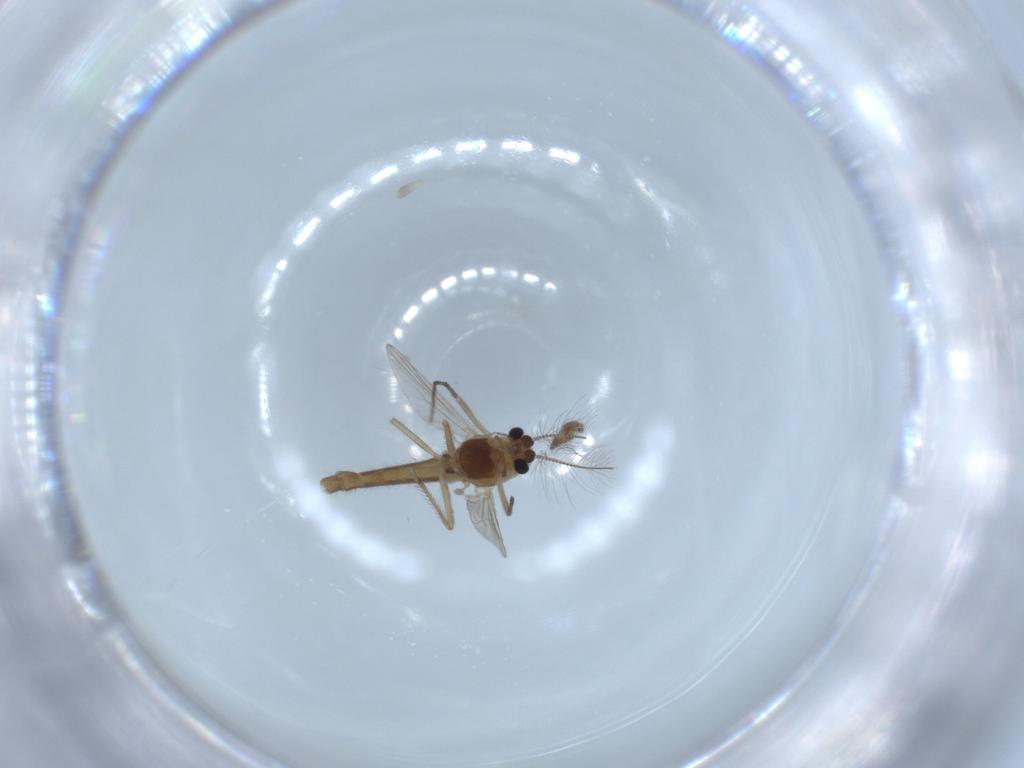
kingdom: Animalia
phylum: Arthropoda
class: Insecta
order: Diptera
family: Chironomidae
